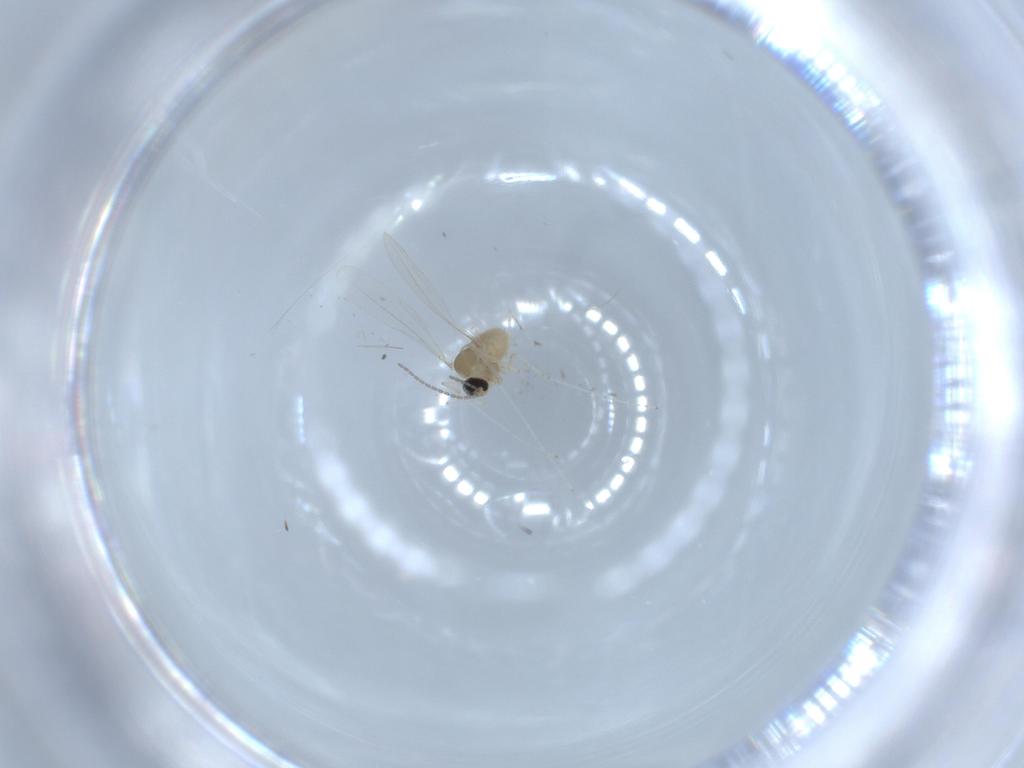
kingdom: Animalia
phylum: Arthropoda
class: Insecta
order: Diptera
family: Cecidomyiidae
